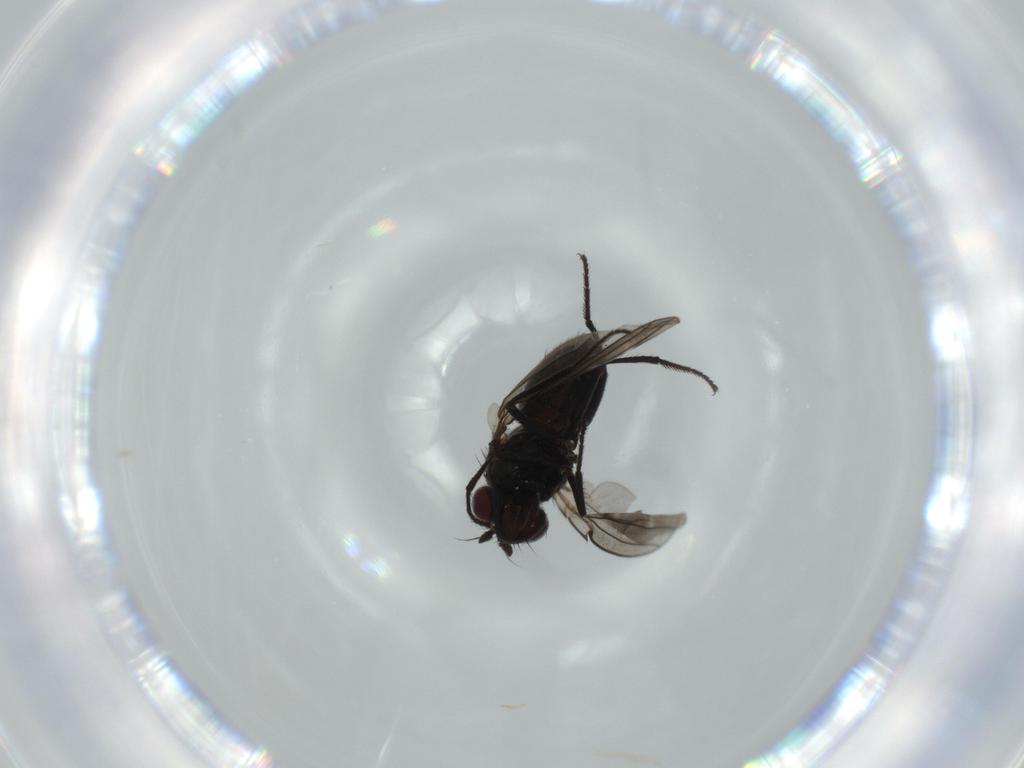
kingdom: Animalia
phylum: Arthropoda
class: Insecta
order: Diptera
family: Ephydridae
